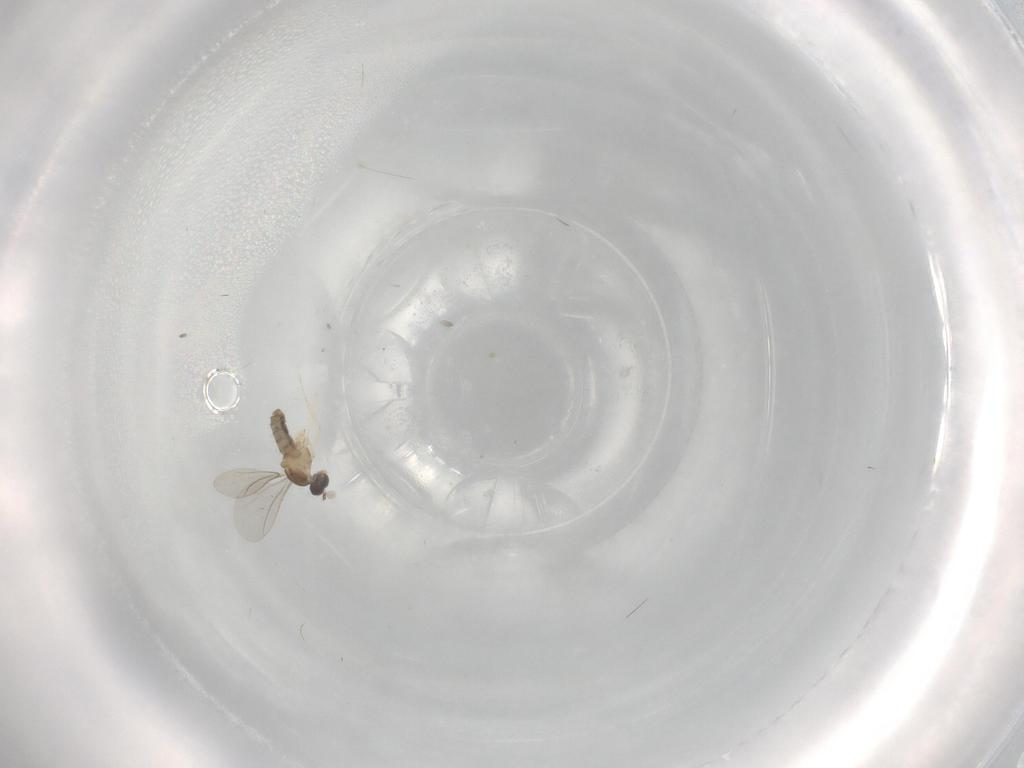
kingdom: Animalia
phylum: Arthropoda
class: Insecta
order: Diptera
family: Cecidomyiidae
